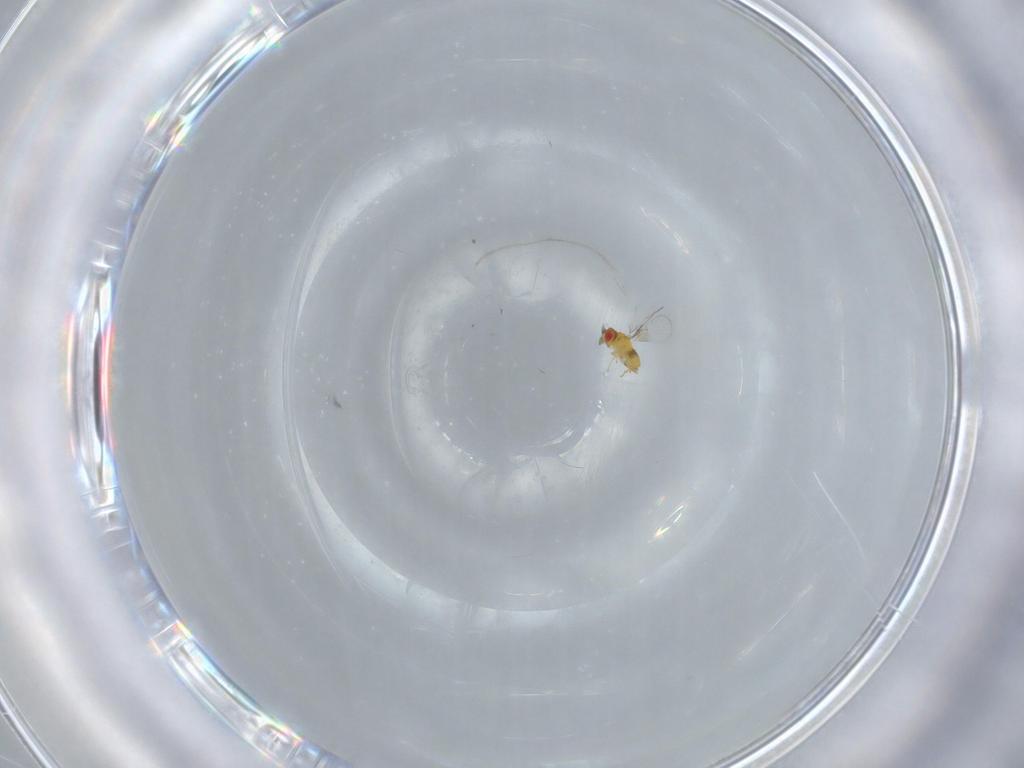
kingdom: Animalia
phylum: Arthropoda
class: Insecta
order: Hymenoptera
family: Trichogrammatidae
